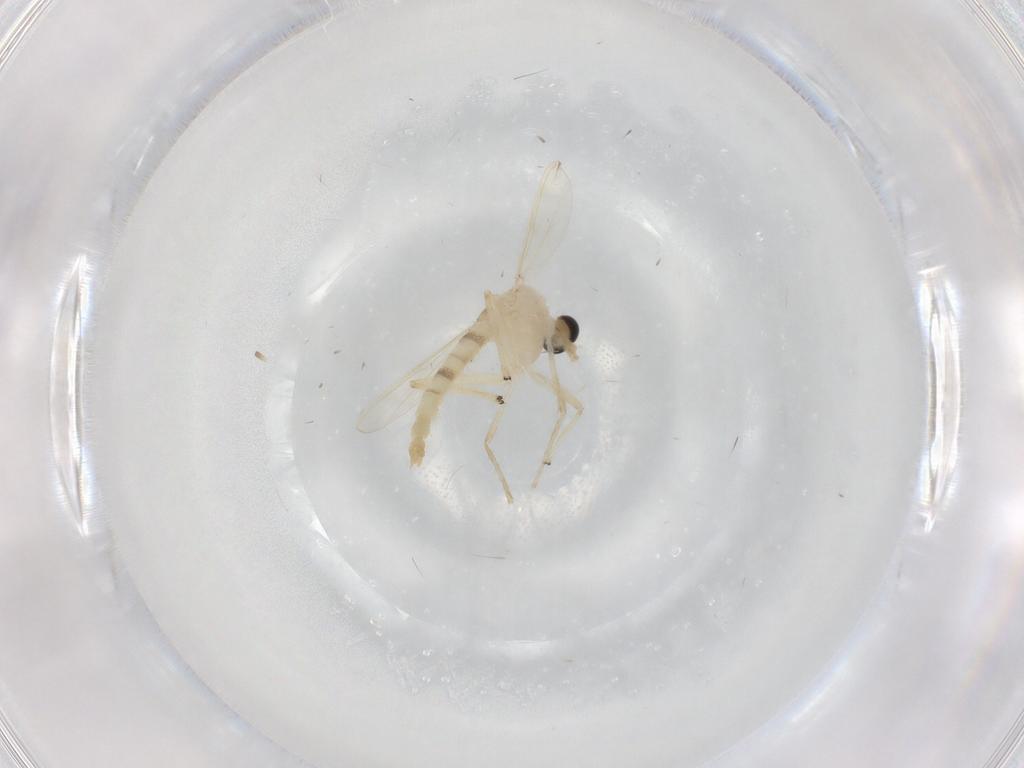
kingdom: Animalia
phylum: Arthropoda
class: Insecta
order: Diptera
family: Chironomidae
